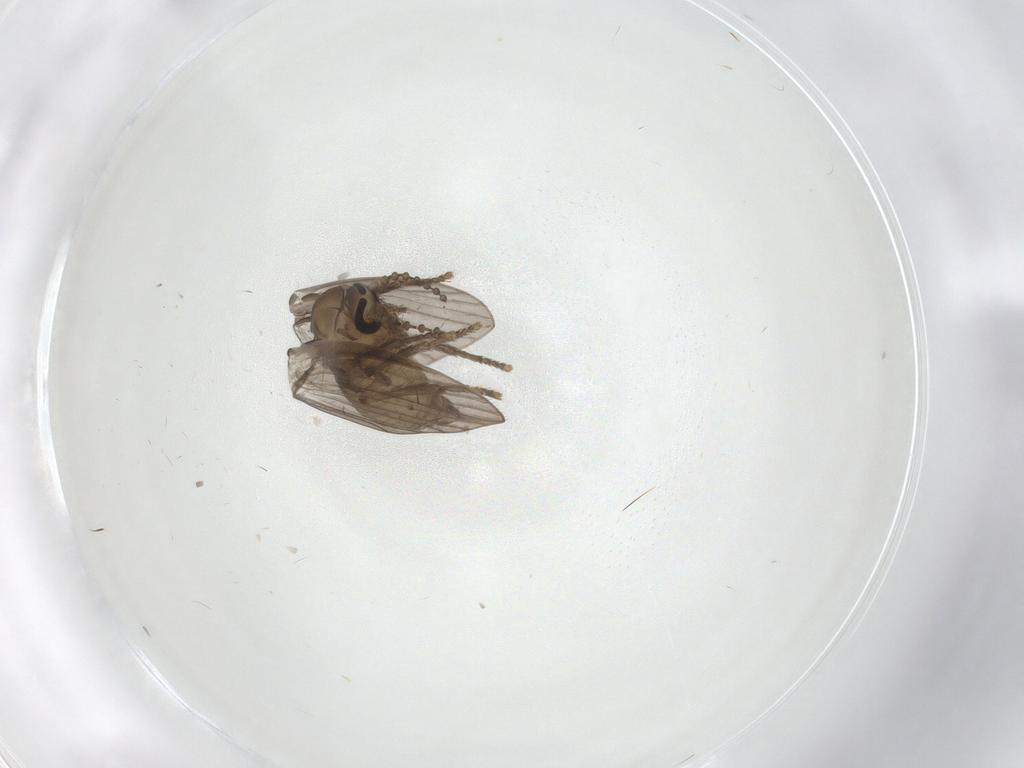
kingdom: Animalia
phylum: Arthropoda
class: Insecta
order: Diptera
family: Psychodidae
